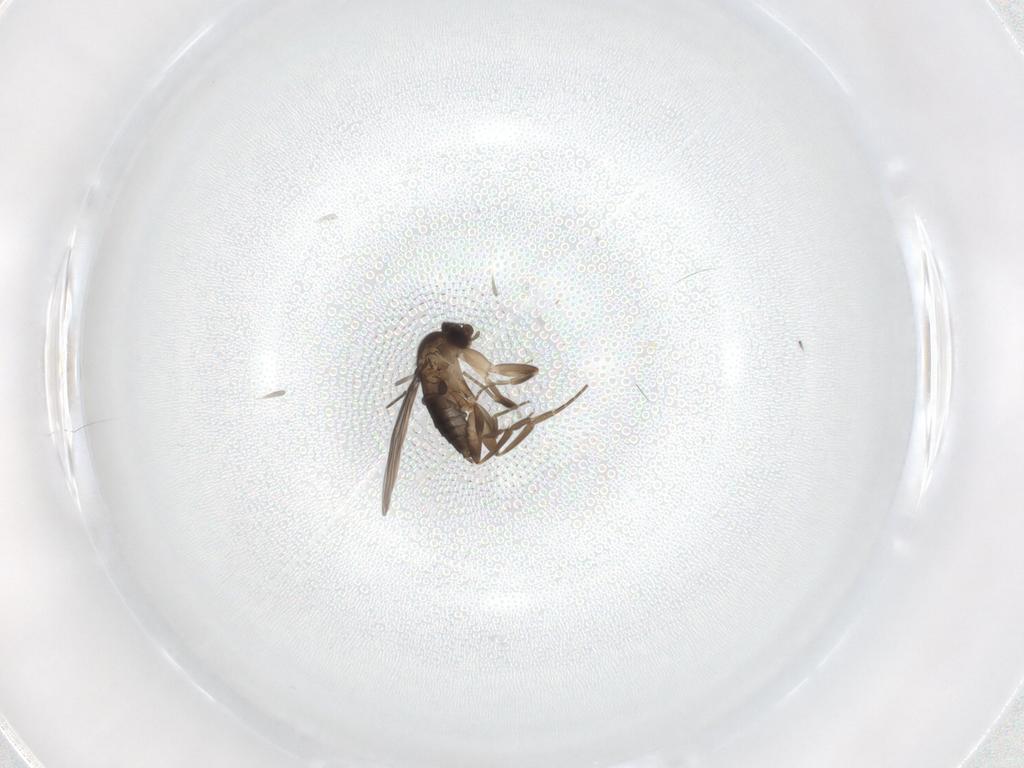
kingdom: Animalia
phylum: Arthropoda
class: Insecta
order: Diptera
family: Phoridae
